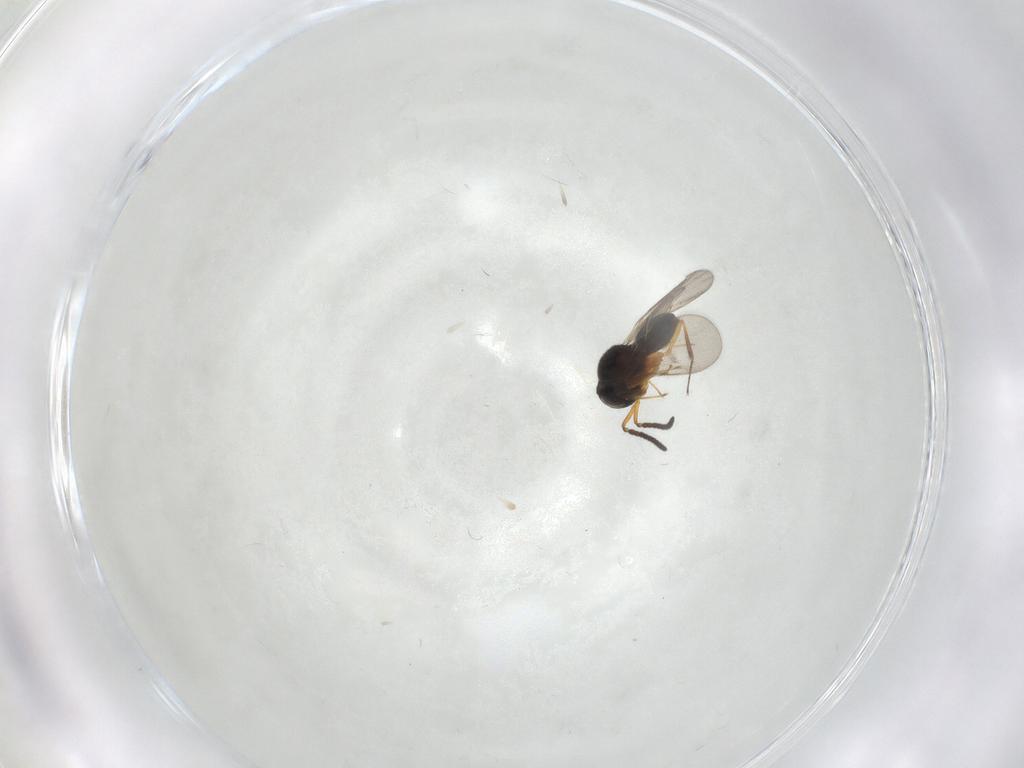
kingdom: Animalia
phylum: Arthropoda
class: Insecta
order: Hymenoptera
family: Scelionidae
